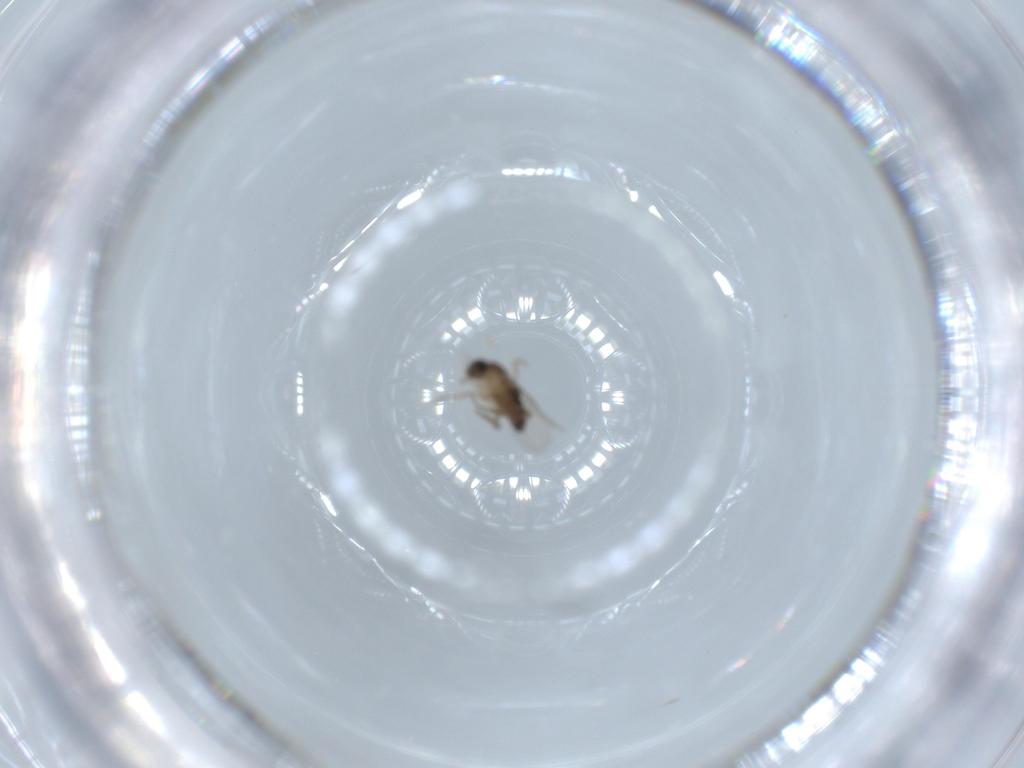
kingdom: Animalia
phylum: Arthropoda
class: Insecta
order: Diptera
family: Phoridae
